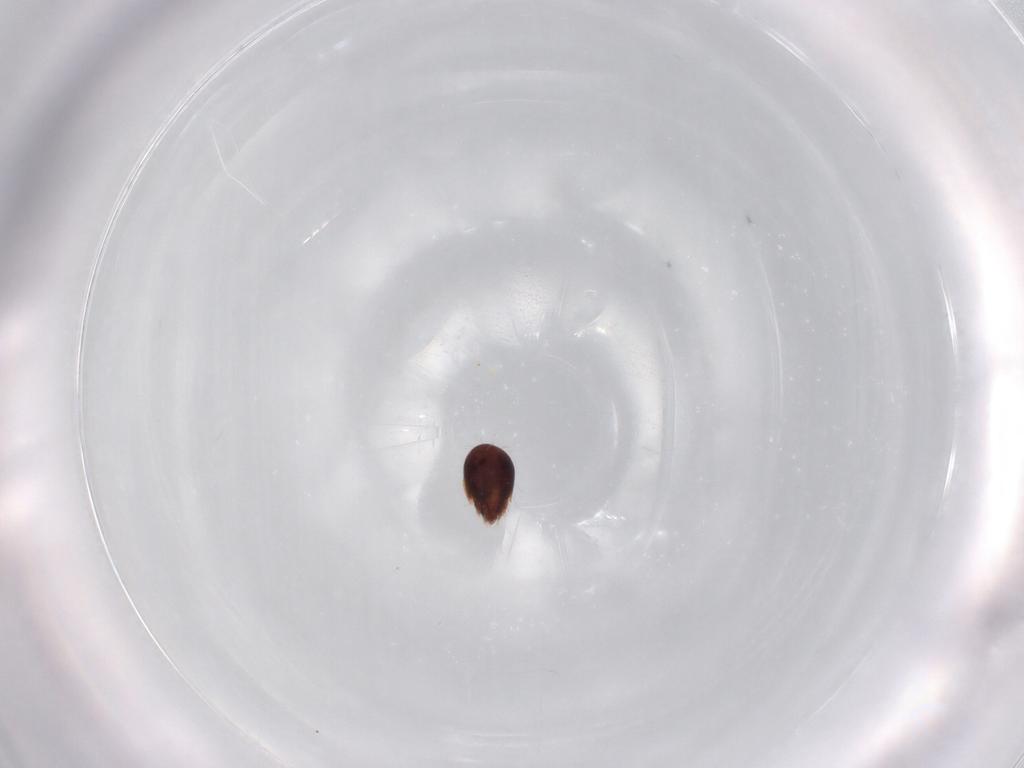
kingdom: Animalia
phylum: Arthropoda
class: Arachnida
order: Sarcoptiformes
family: Humerobatidae
